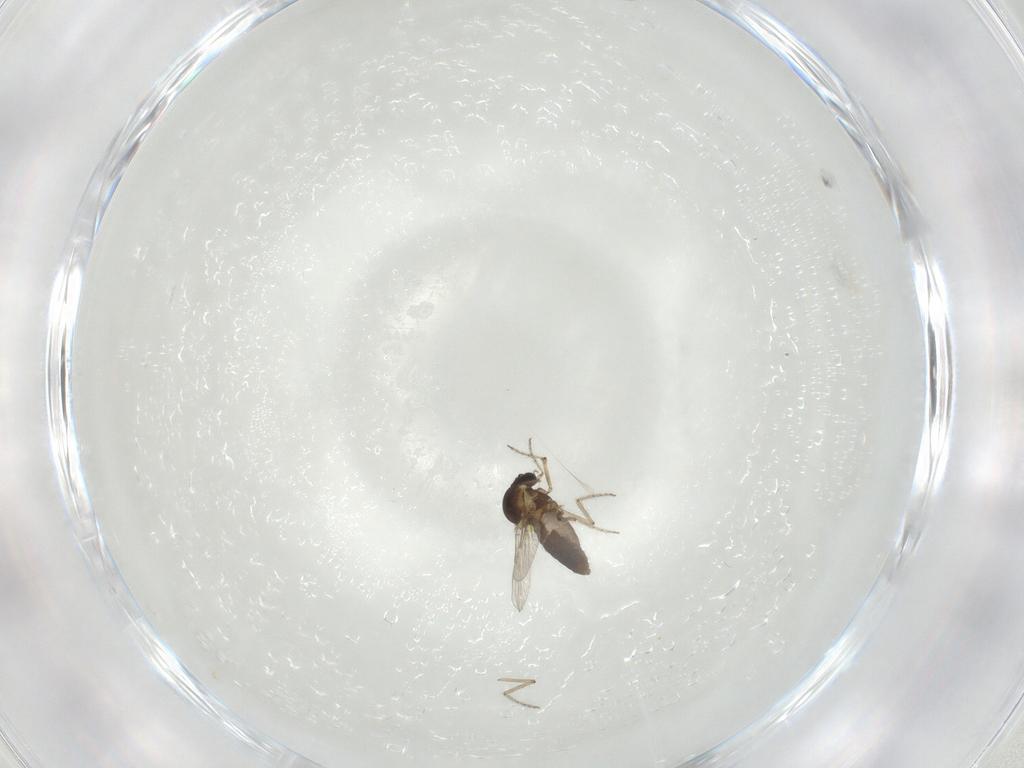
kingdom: Animalia
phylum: Arthropoda
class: Insecta
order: Diptera
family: Ceratopogonidae
